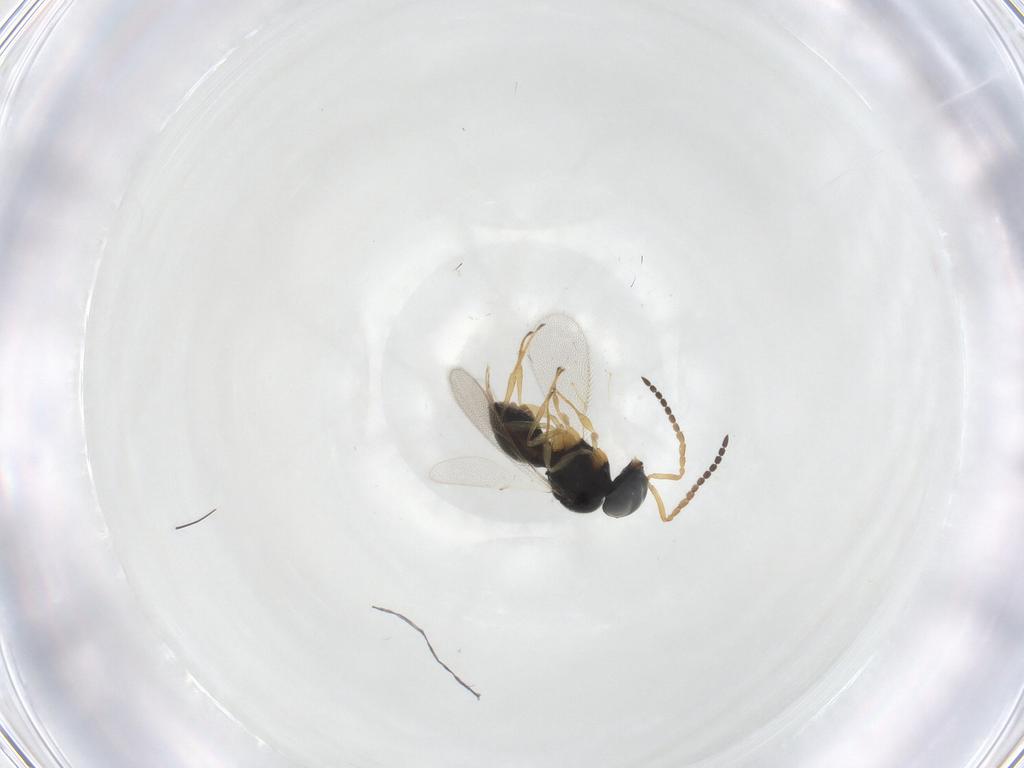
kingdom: Animalia
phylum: Arthropoda
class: Insecta
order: Hymenoptera
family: Scelionidae
